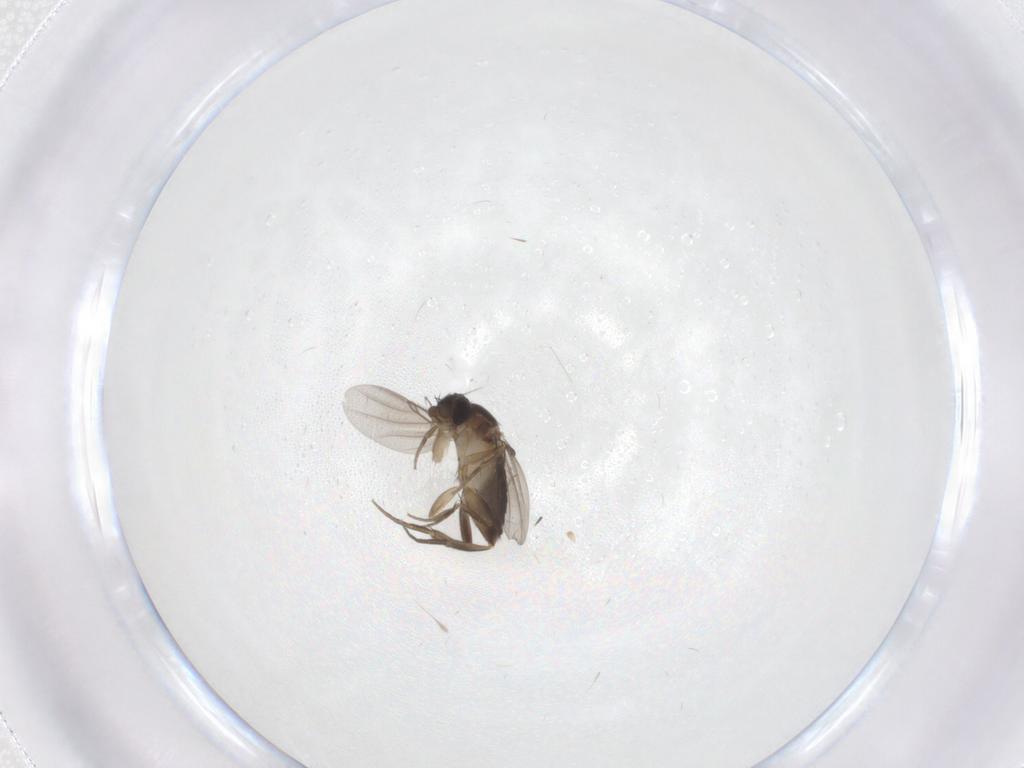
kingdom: Animalia
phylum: Arthropoda
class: Insecta
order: Diptera
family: Phoridae
